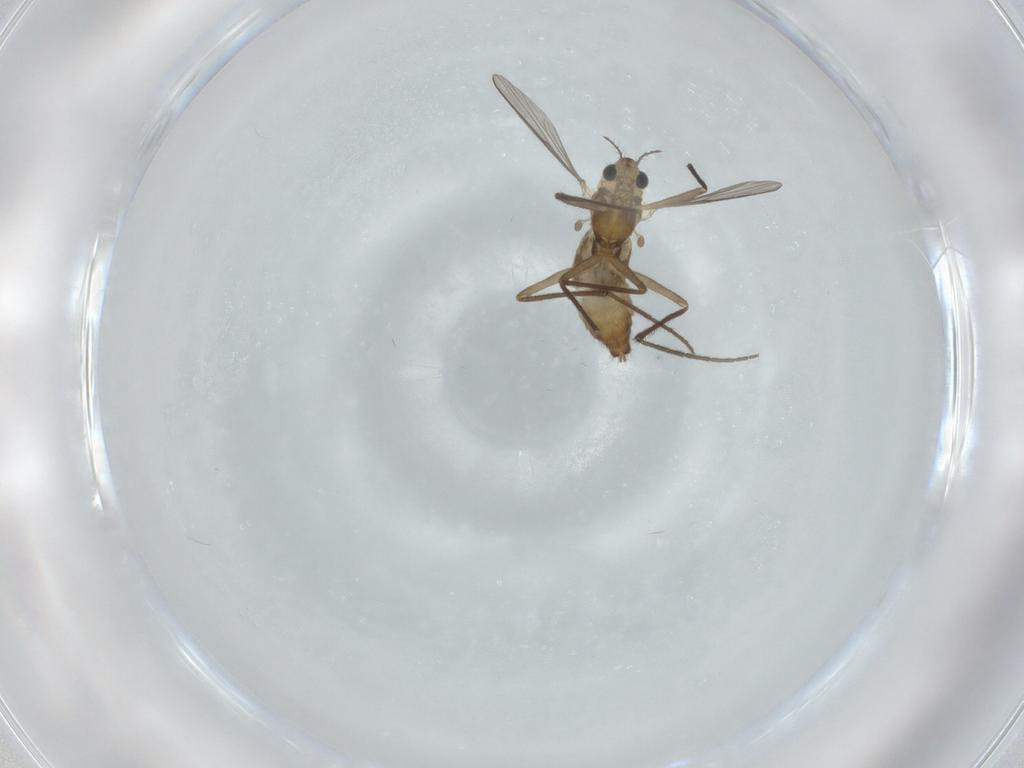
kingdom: Animalia
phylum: Arthropoda
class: Insecta
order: Diptera
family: Chironomidae
